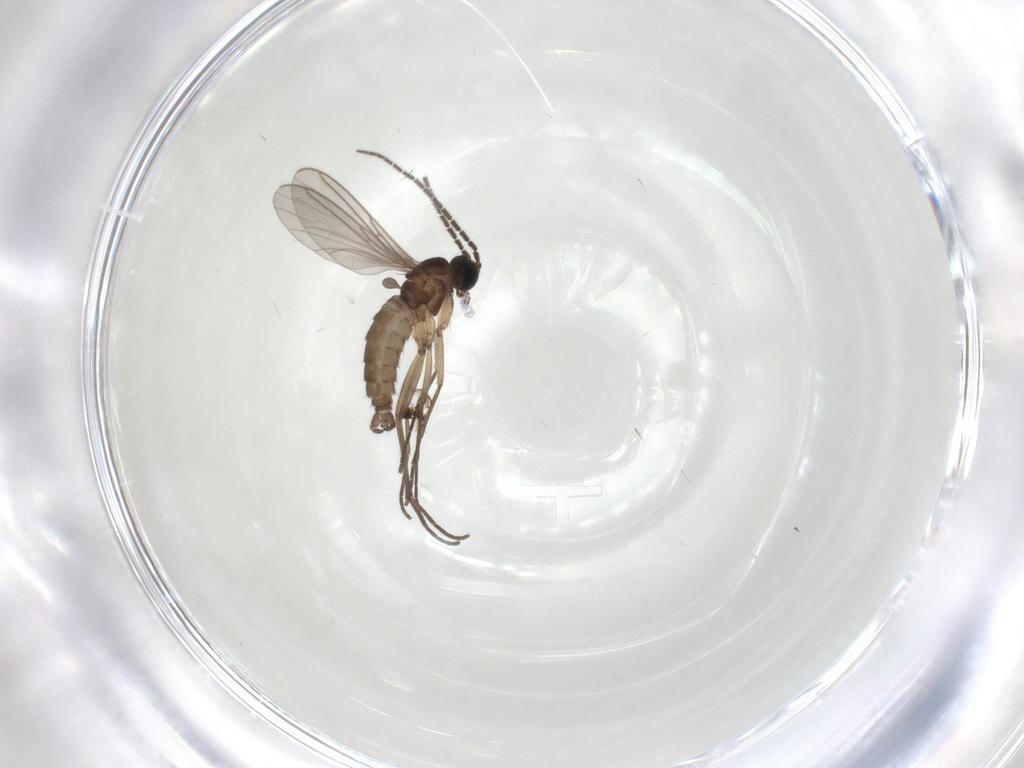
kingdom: Animalia
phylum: Arthropoda
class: Insecta
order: Diptera
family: Sciaridae
